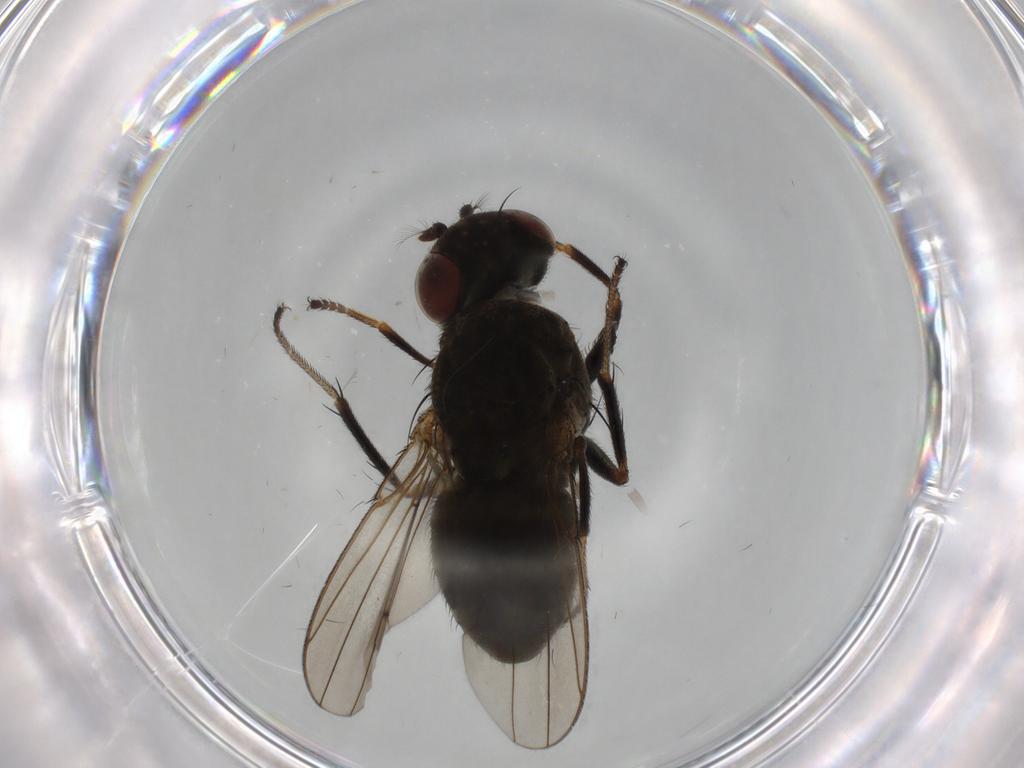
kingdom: Animalia
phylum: Arthropoda
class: Insecta
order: Diptera
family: Ephydridae
